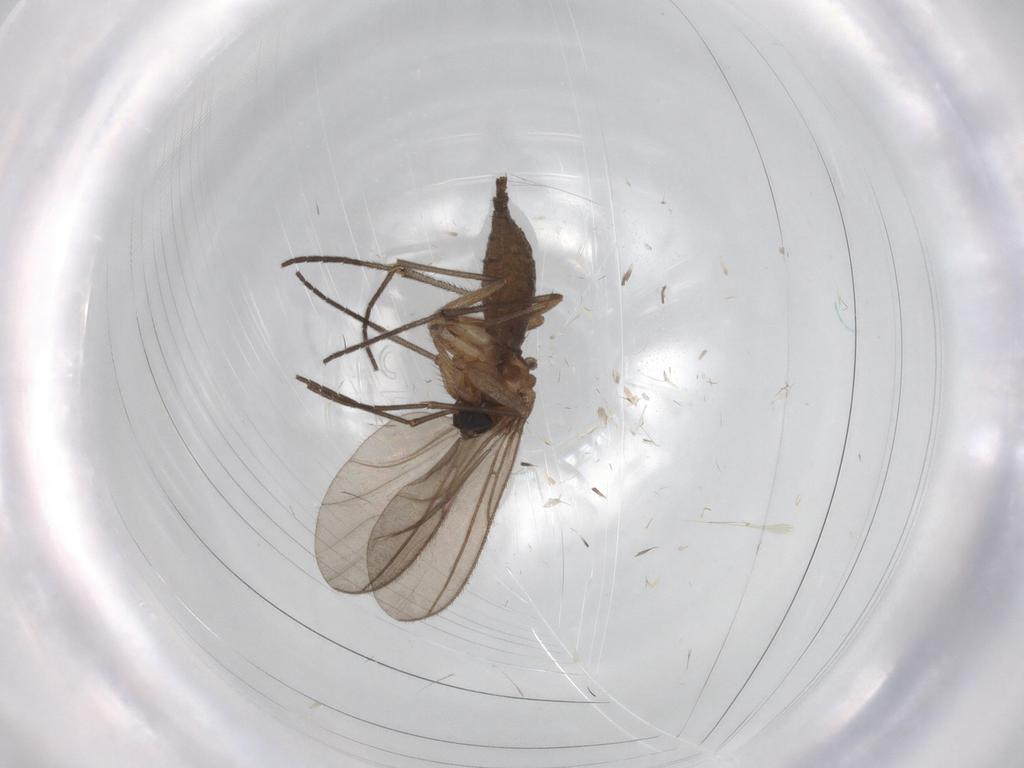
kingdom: Animalia
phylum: Arthropoda
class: Insecta
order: Diptera
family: Sciaridae
